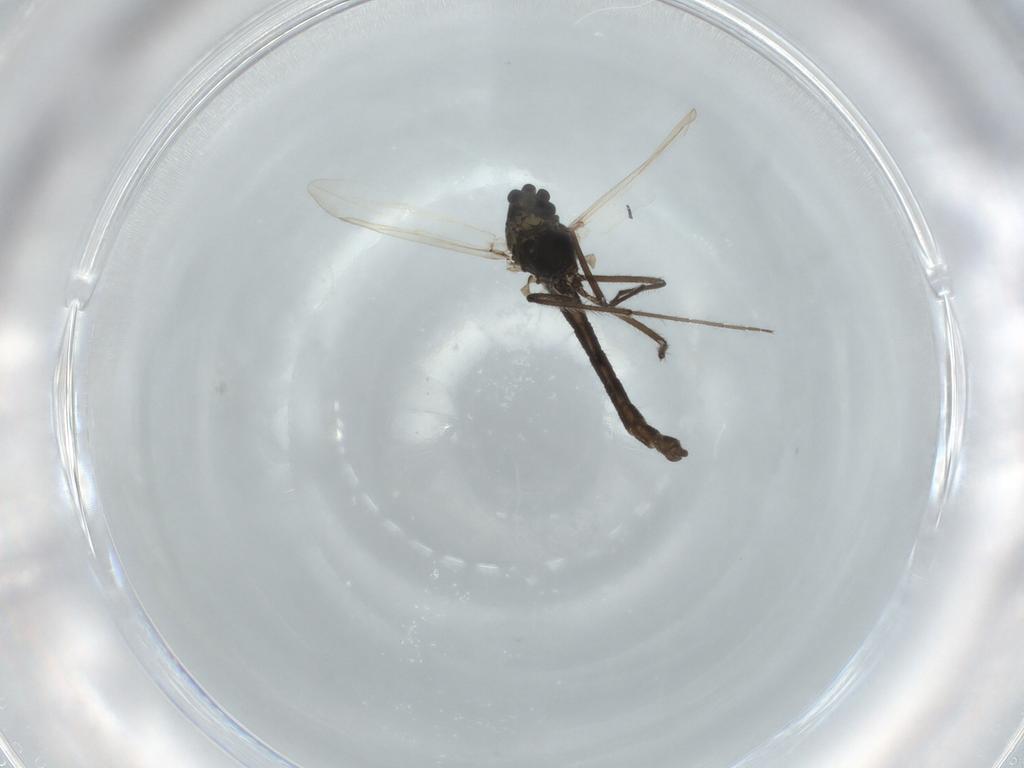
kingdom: Animalia
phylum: Arthropoda
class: Insecta
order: Diptera
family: Chironomidae
